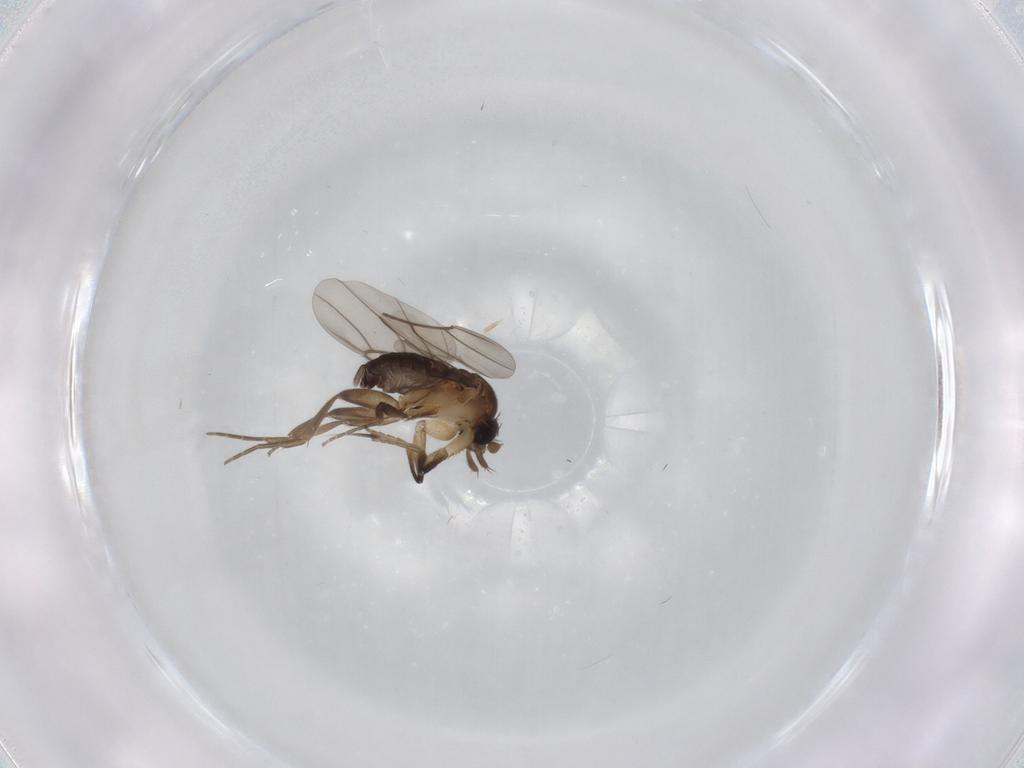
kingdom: Animalia
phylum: Arthropoda
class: Insecta
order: Diptera
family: Phoridae
